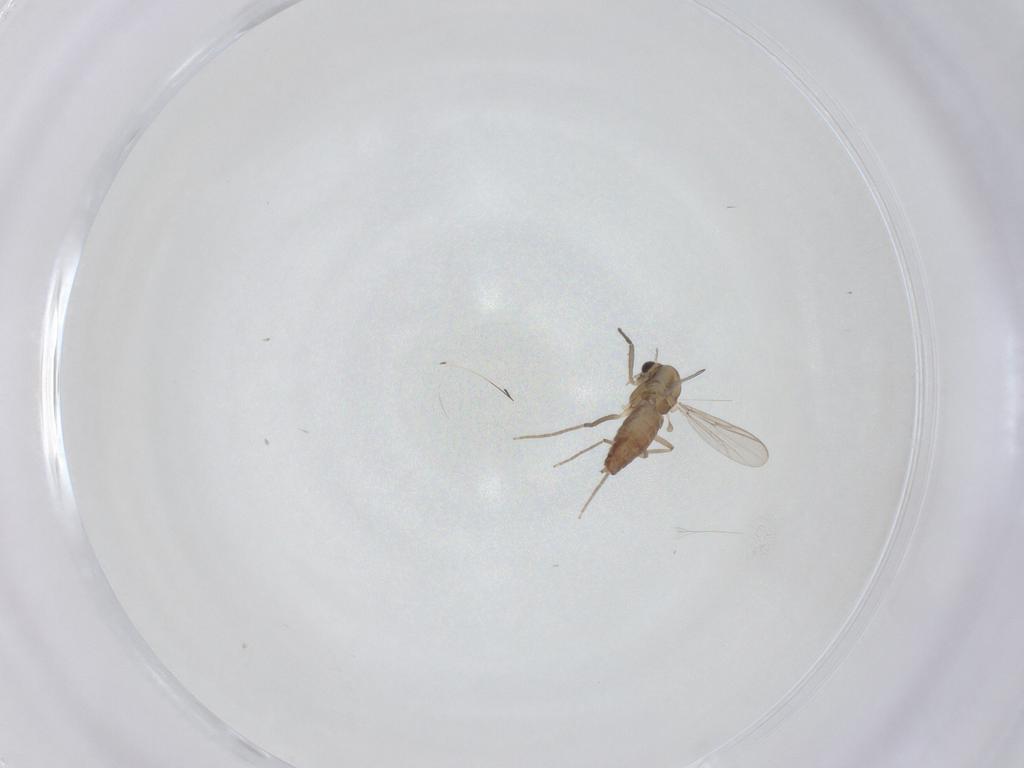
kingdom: Animalia
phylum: Arthropoda
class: Insecta
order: Diptera
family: Chironomidae
